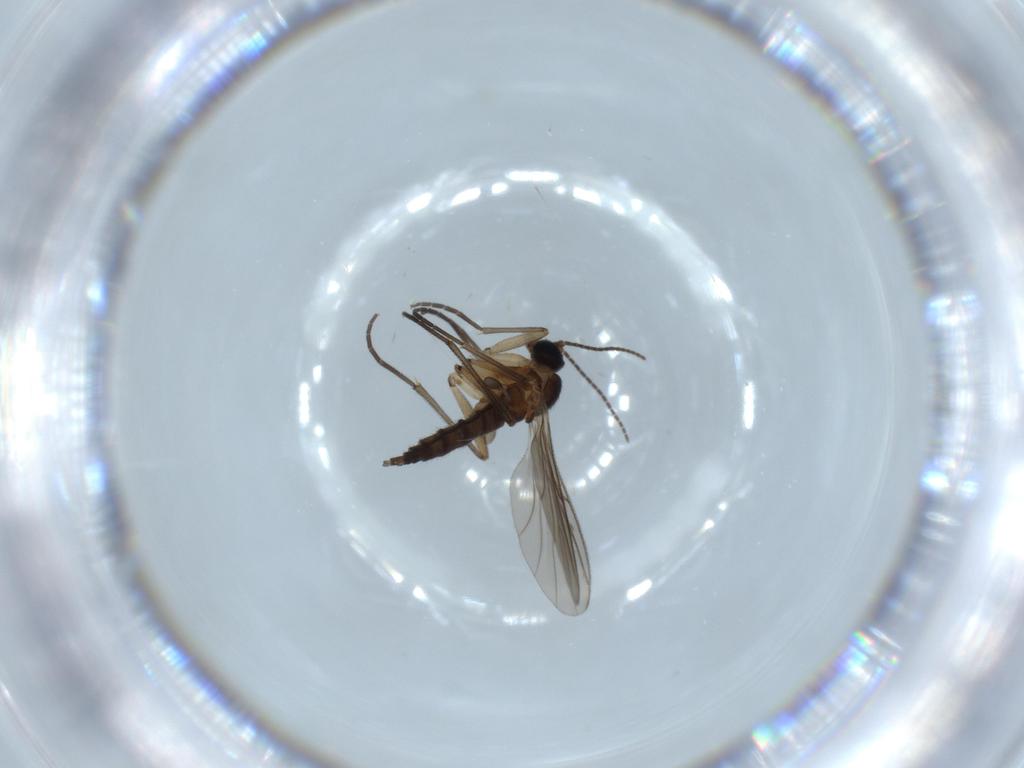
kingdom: Animalia
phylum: Arthropoda
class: Insecta
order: Diptera
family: Sciaridae
